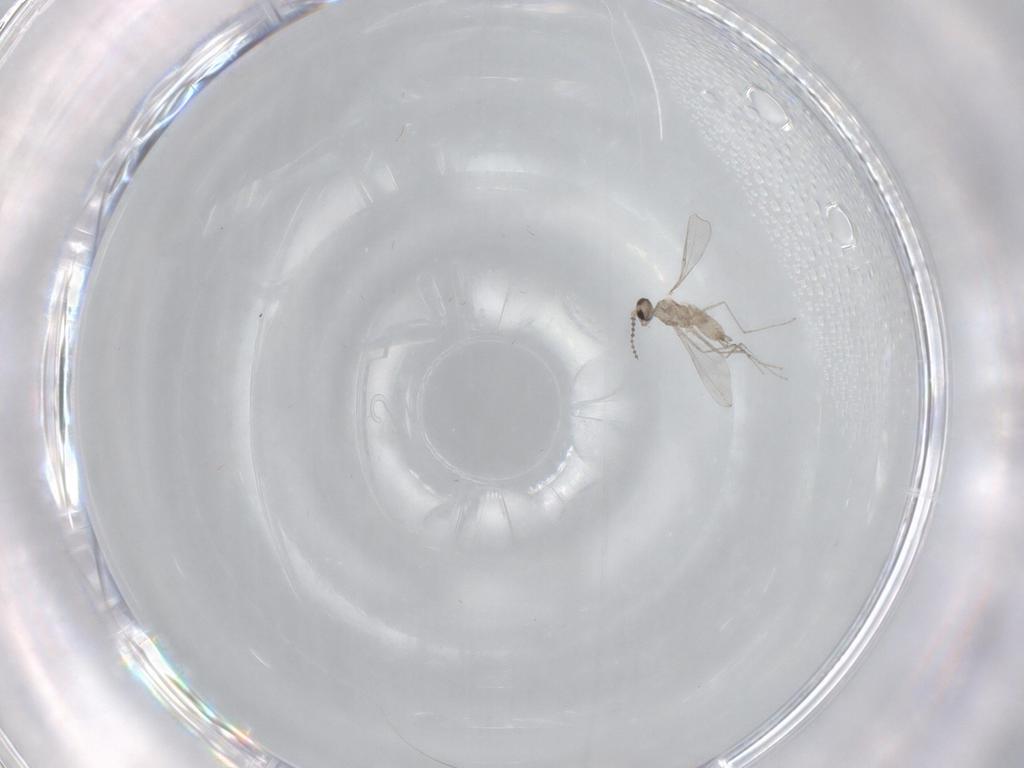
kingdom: Animalia
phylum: Arthropoda
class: Insecta
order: Diptera
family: Cecidomyiidae
